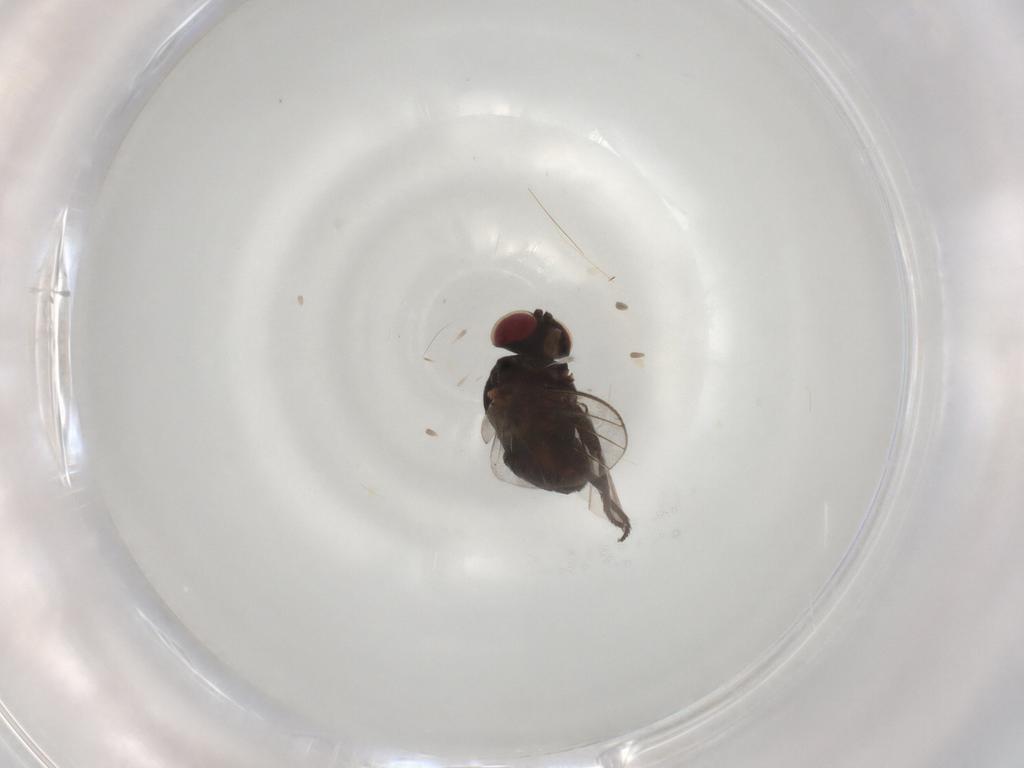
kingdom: Animalia
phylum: Arthropoda
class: Insecta
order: Diptera
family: Agromyzidae
